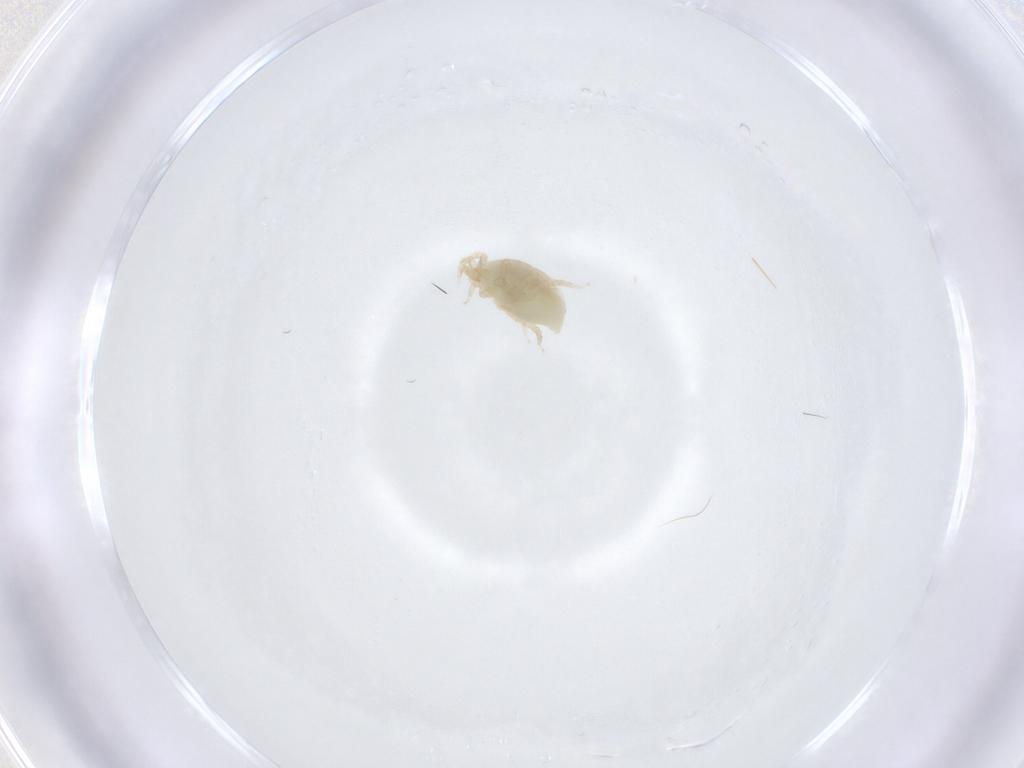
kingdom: Animalia
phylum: Arthropoda
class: Arachnida
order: Mesostigmata
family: Melicharidae
